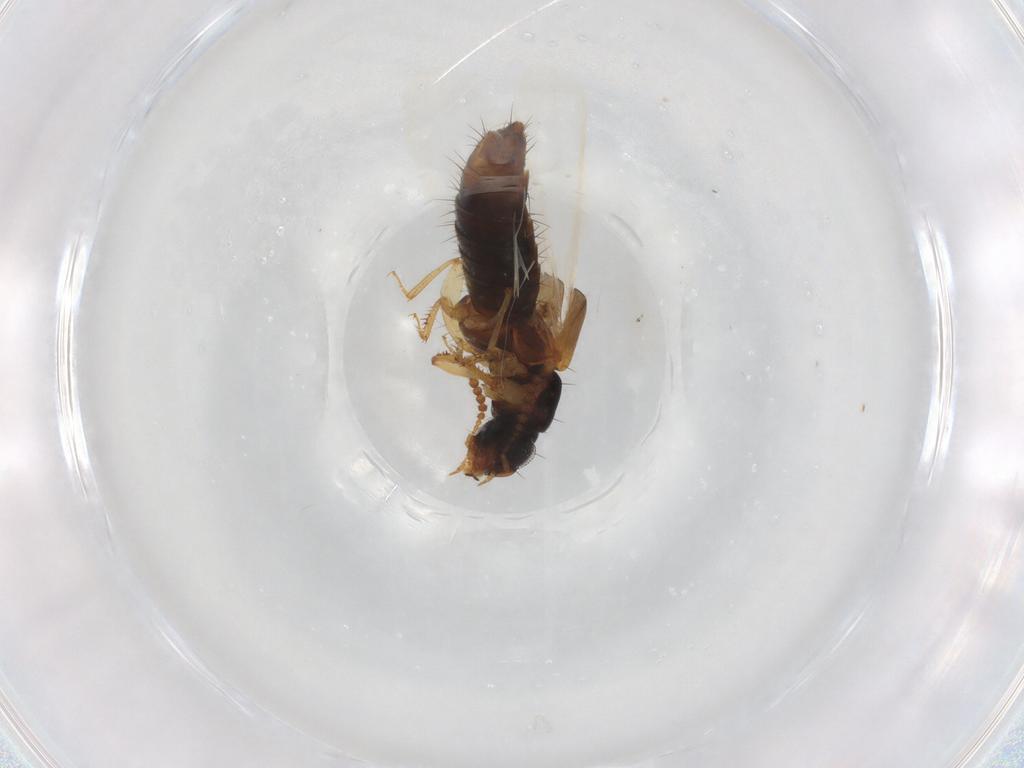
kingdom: Animalia
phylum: Arthropoda
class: Insecta
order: Coleoptera
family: Staphylinidae
